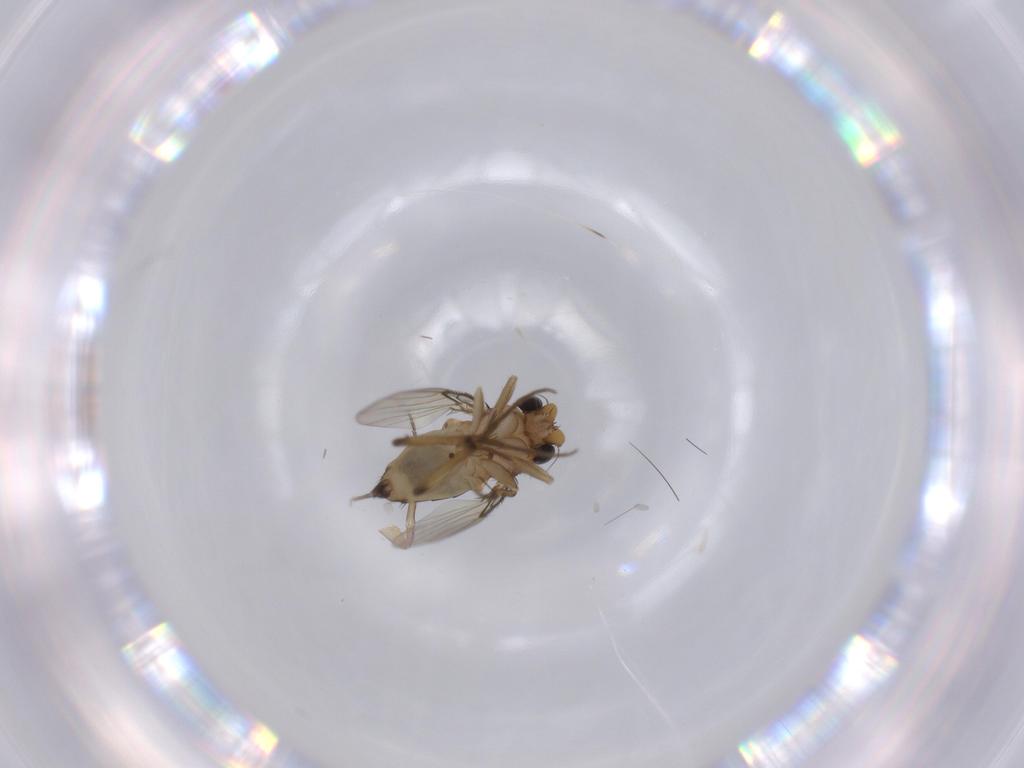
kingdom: Animalia
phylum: Arthropoda
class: Insecta
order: Diptera
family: Cecidomyiidae
